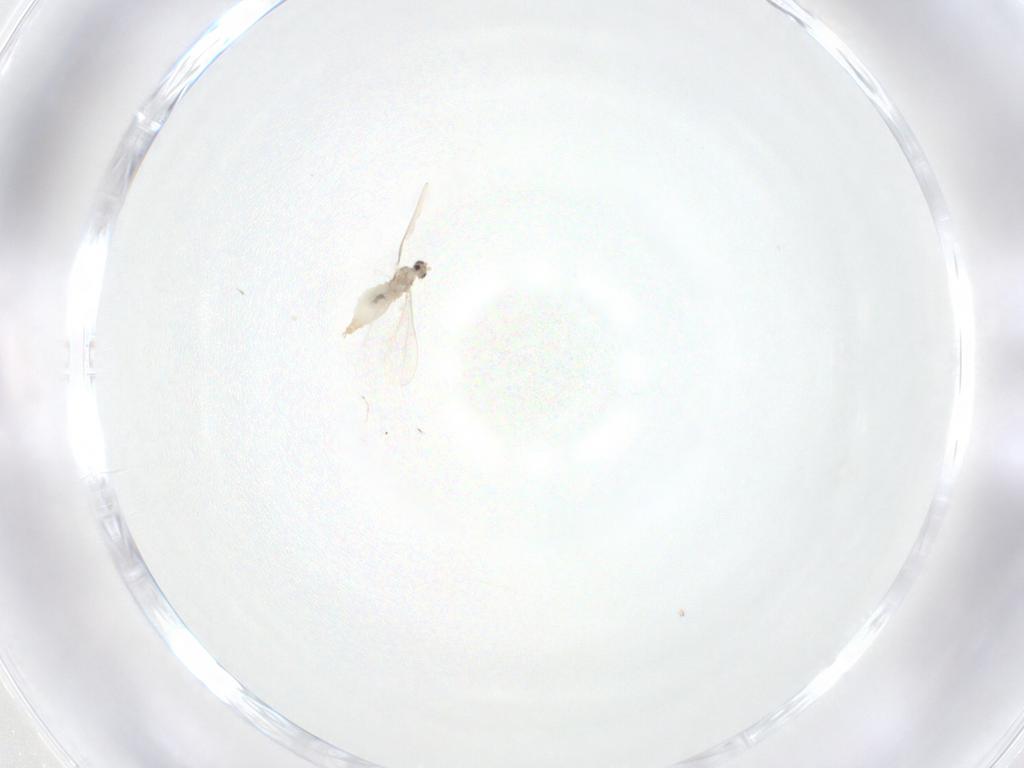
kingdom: Animalia
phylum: Arthropoda
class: Insecta
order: Diptera
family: Cecidomyiidae
